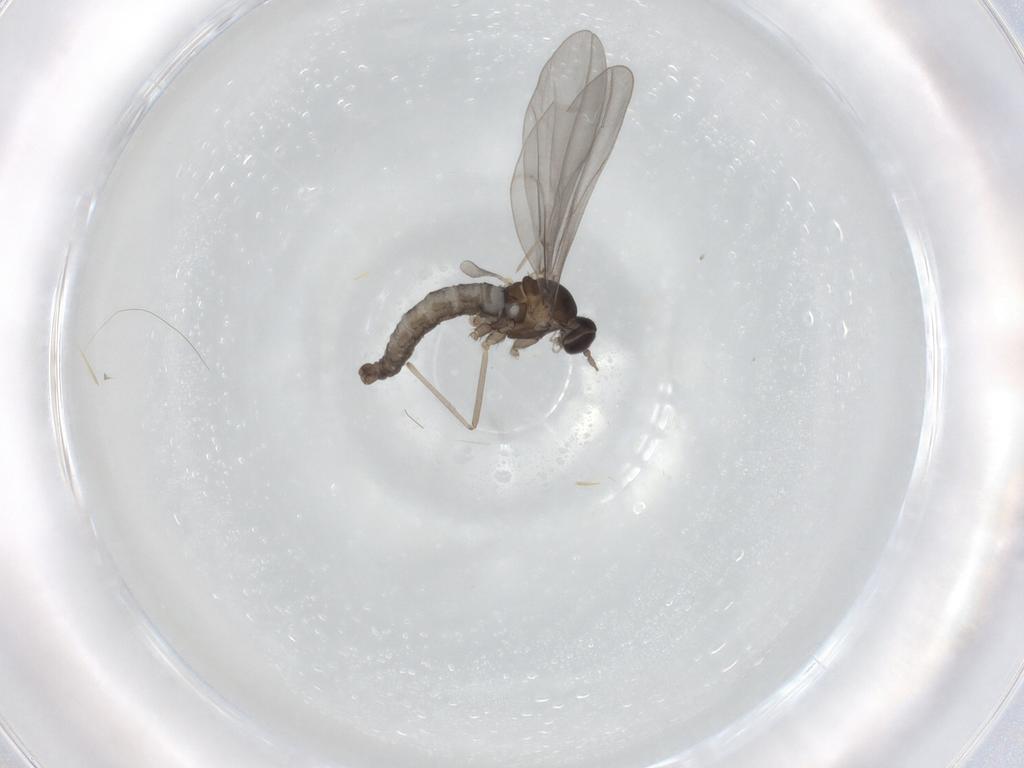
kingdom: Animalia
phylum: Arthropoda
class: Insecta
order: Diptera
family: Cecidomyiidae
